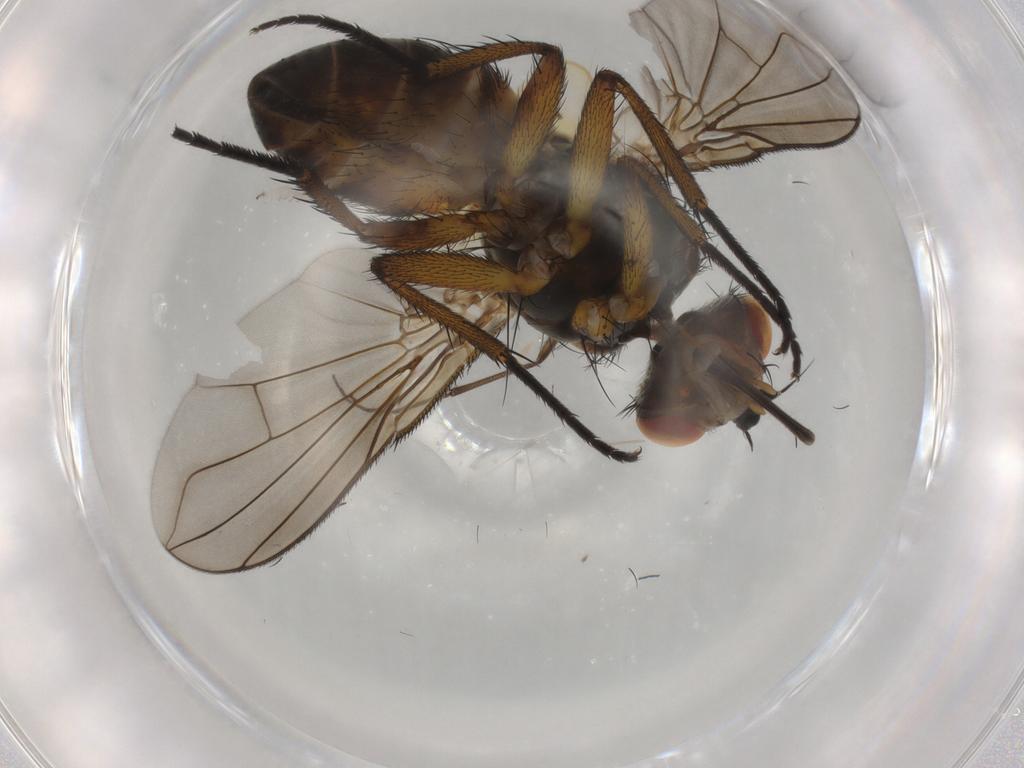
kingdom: Animalia
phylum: Arthropoda
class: Insecta
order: Diptera
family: Tachinidae
